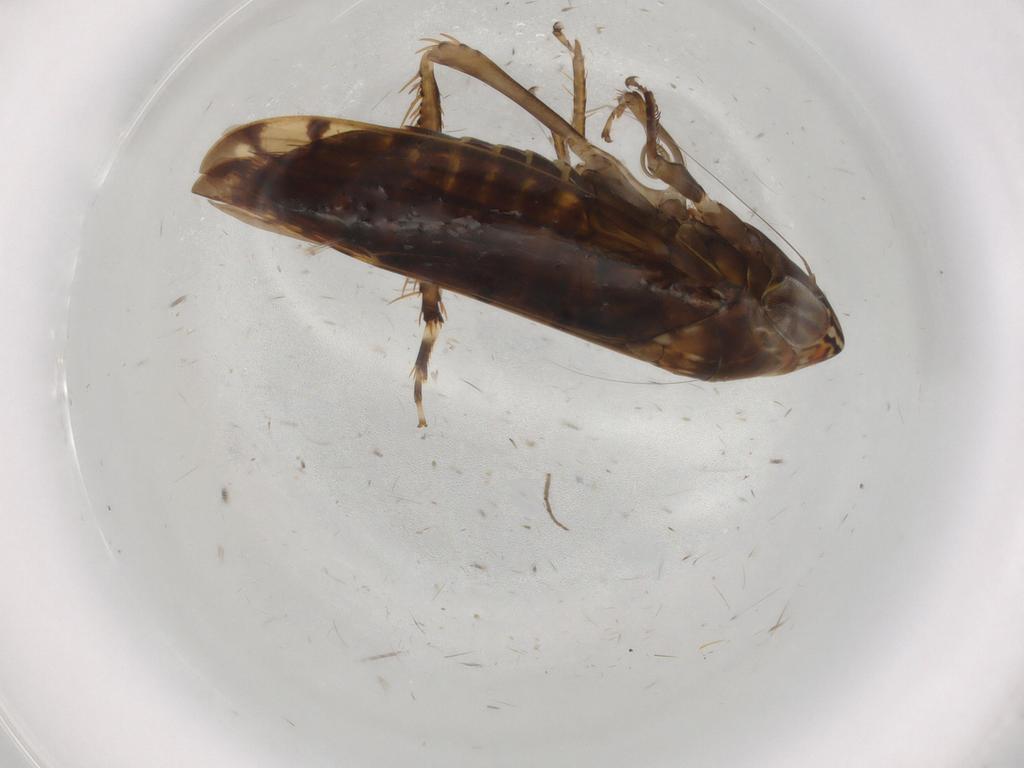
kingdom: Animalia
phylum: Arthropoda
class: Insecta
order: Hemiptera
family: Cicadellidae
